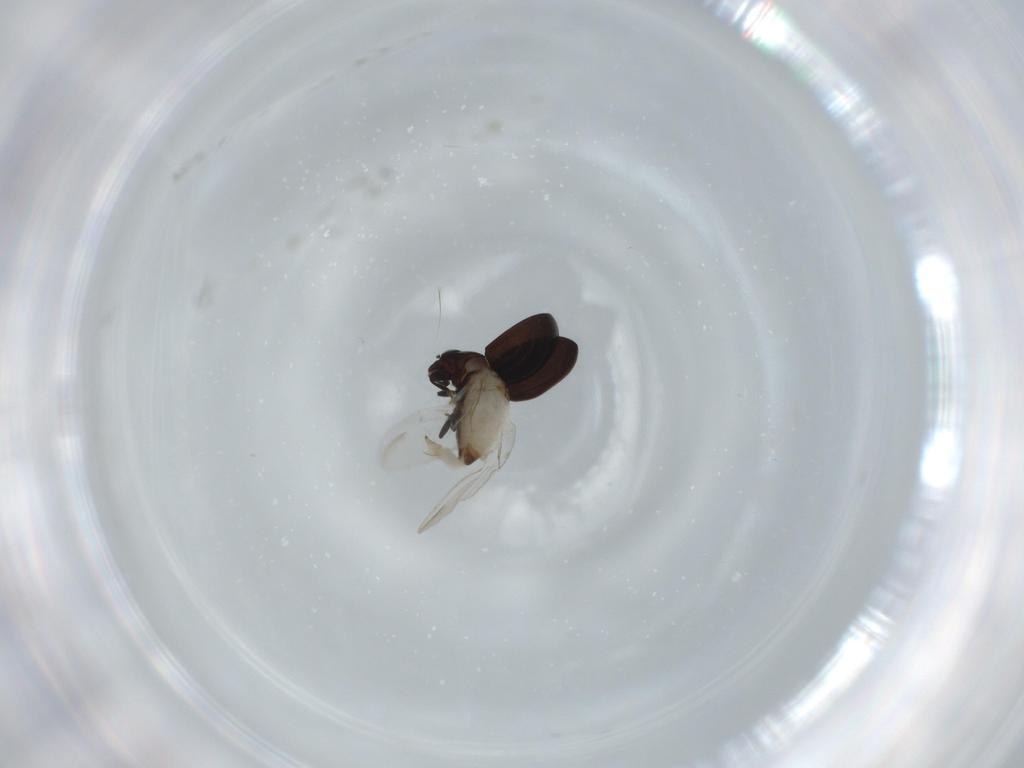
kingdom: Animalia
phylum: Arthropoda
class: Insecta
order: Coleoptera
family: Coccinellidae
